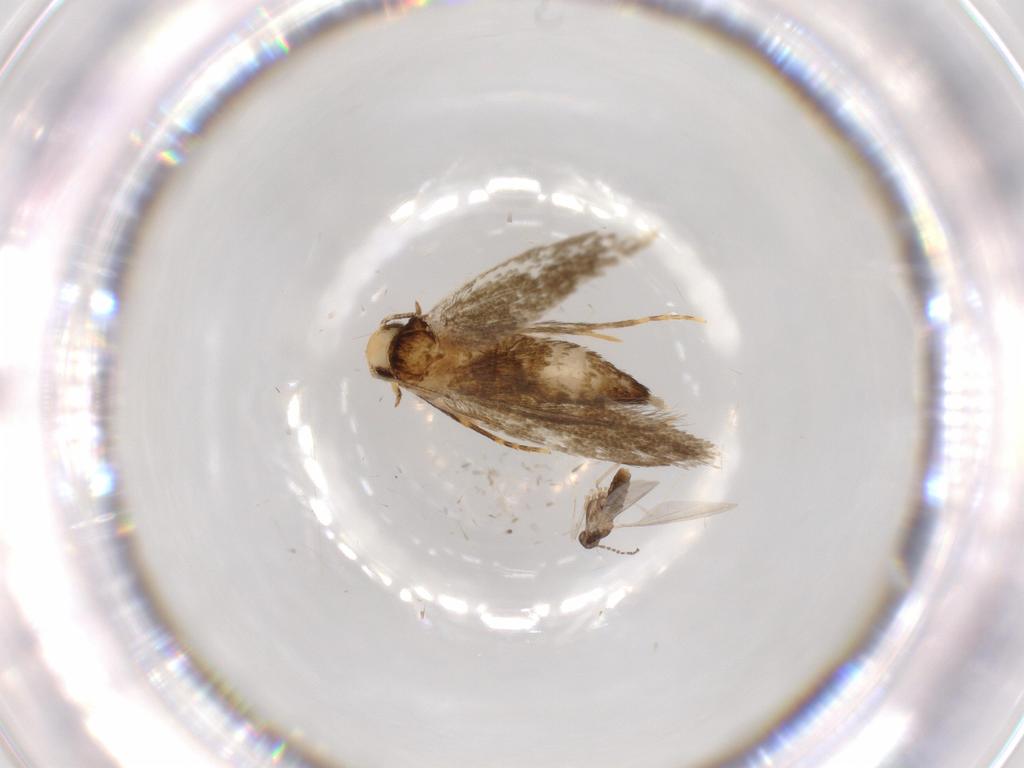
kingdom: Animalia
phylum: Arthropoda
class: Insecta
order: Lepidoptera
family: Tineidae
